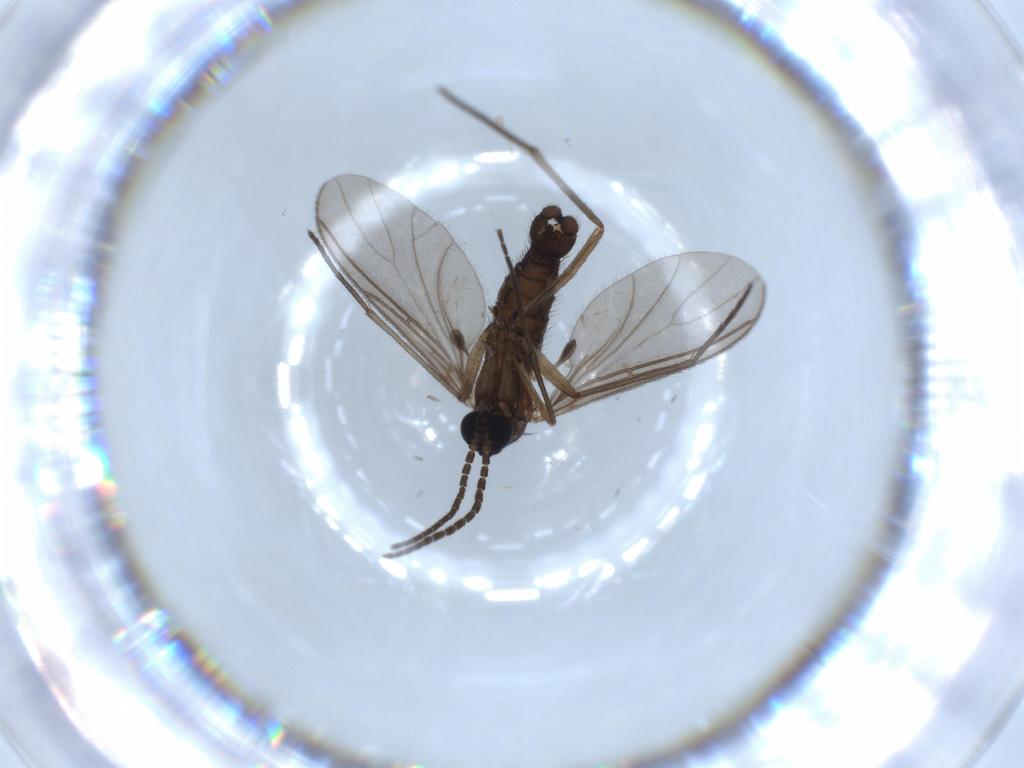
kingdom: Animalia
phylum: Arthropoda
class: Insecta
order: Diptera
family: Sciaridae
